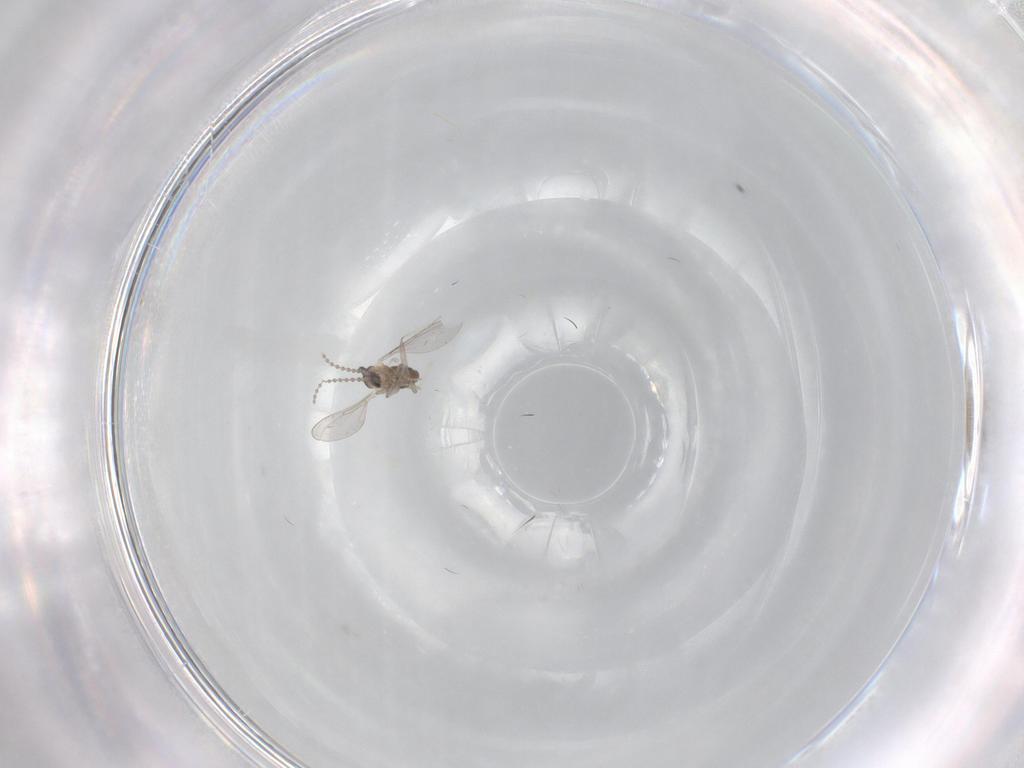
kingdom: Animalia
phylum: Arthropoda
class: Insecta
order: Diptera
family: Cecidomyiidae
